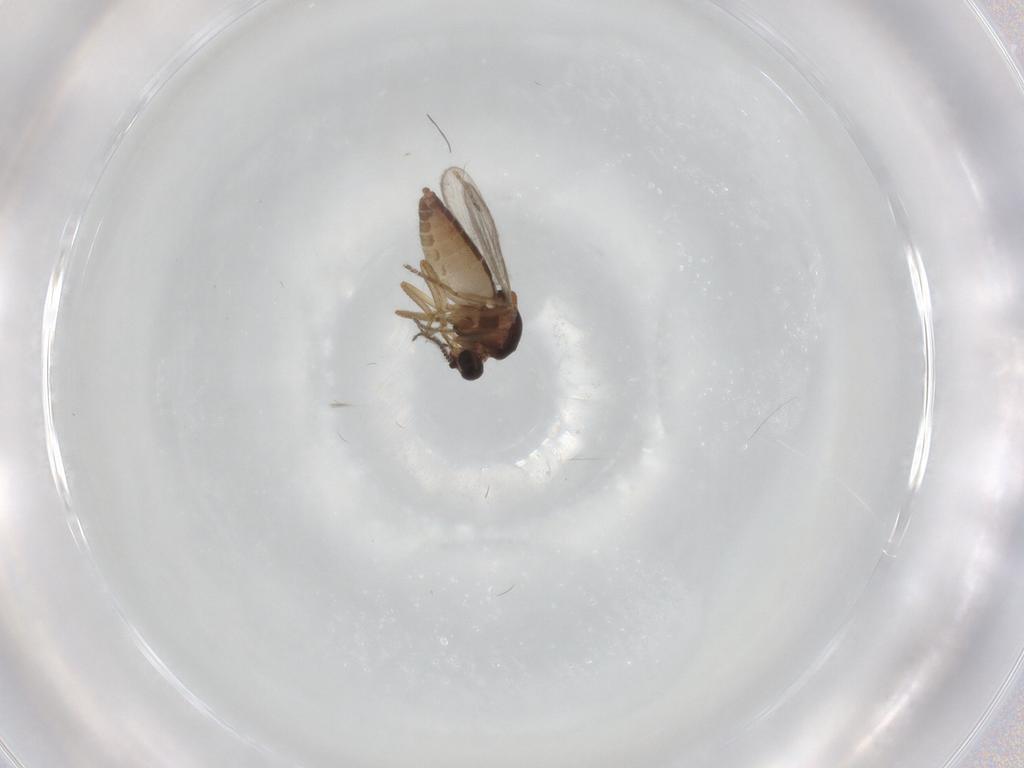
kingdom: Animalia
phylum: Arthropoda
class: Insecta
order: Diptera
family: Ceratopogonidae
